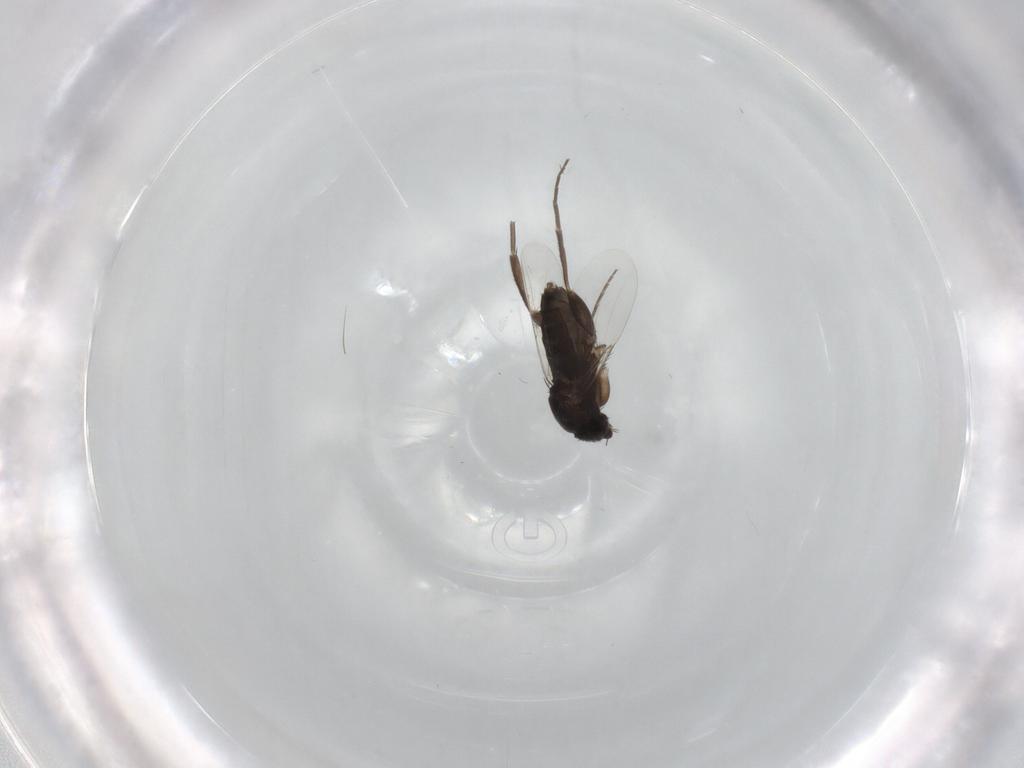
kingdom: Animalia
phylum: Arthropoda
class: Insecta
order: Diptera
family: Phoridae
